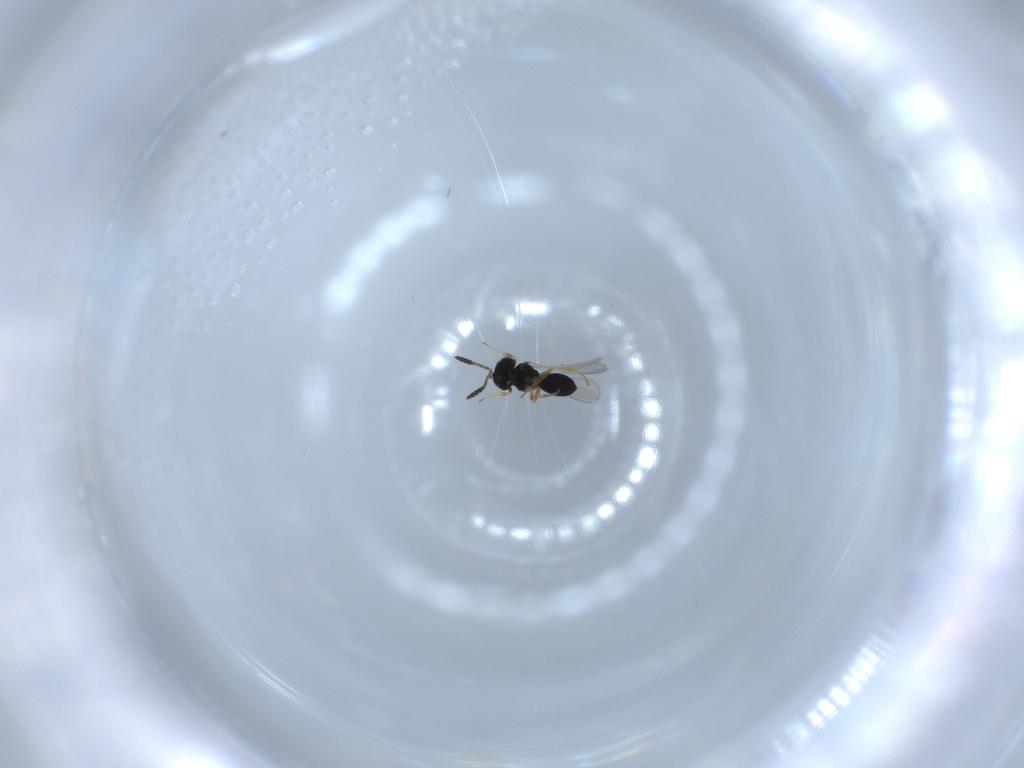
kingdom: Animalia
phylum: Arthropoda
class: Insecta
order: Hymenoptera
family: Scelionidae
